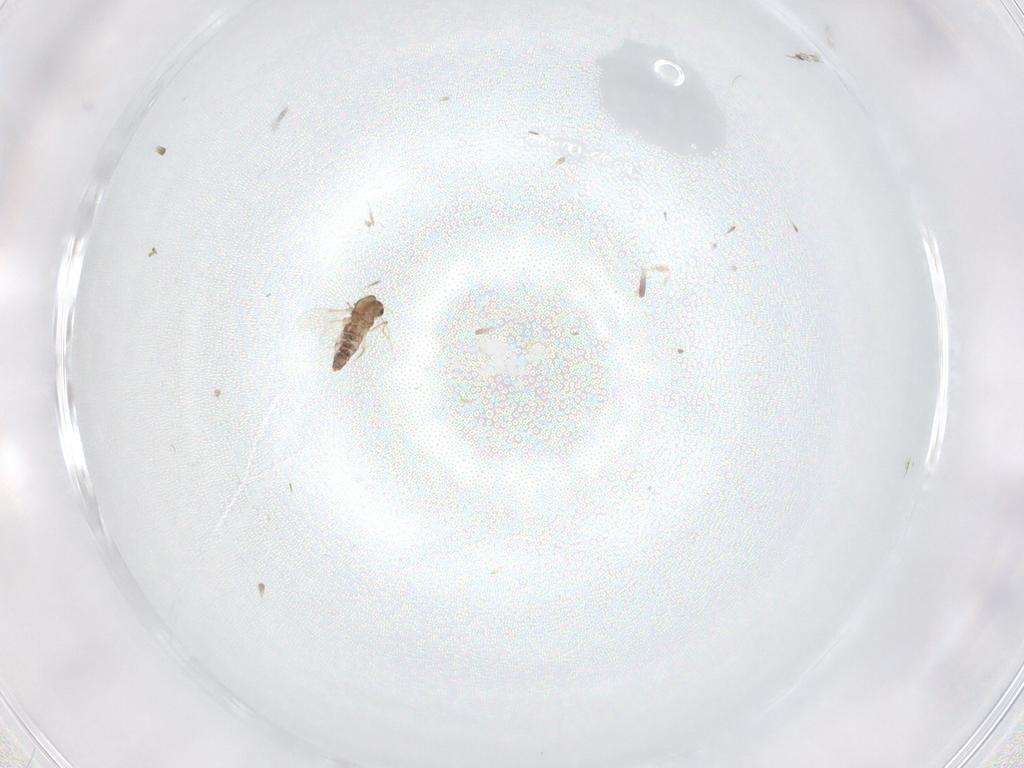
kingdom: Animalia
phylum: Arthropoda
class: Insecta
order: Diptera
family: Chironomidae
